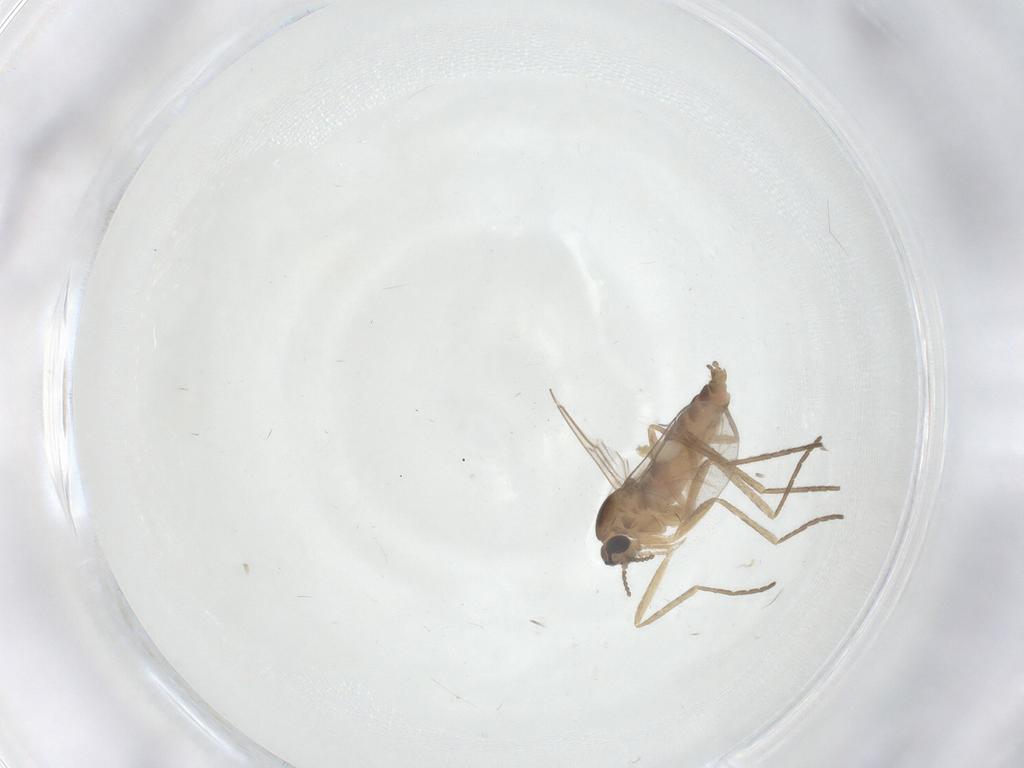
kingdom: Animalia
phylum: Arthropoda
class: Insecta
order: Diptera
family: Cecidomyiidae
